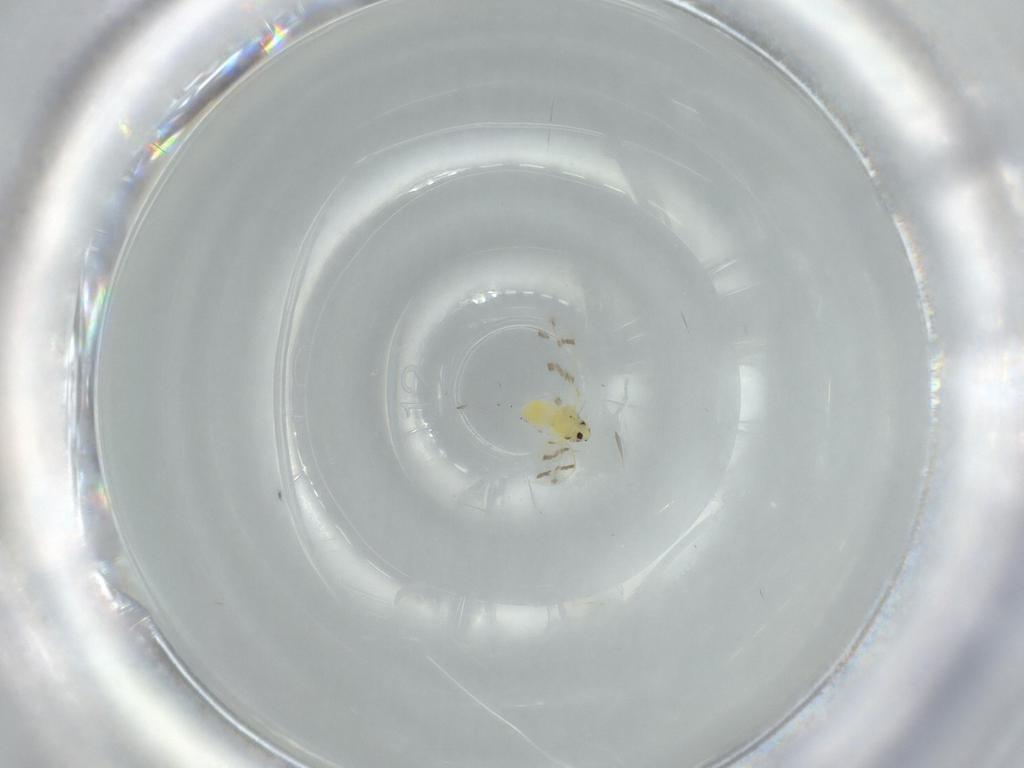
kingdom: Animalia
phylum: Arthropoda
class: Insecta
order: Hemiptera
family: Aleyrodidae
